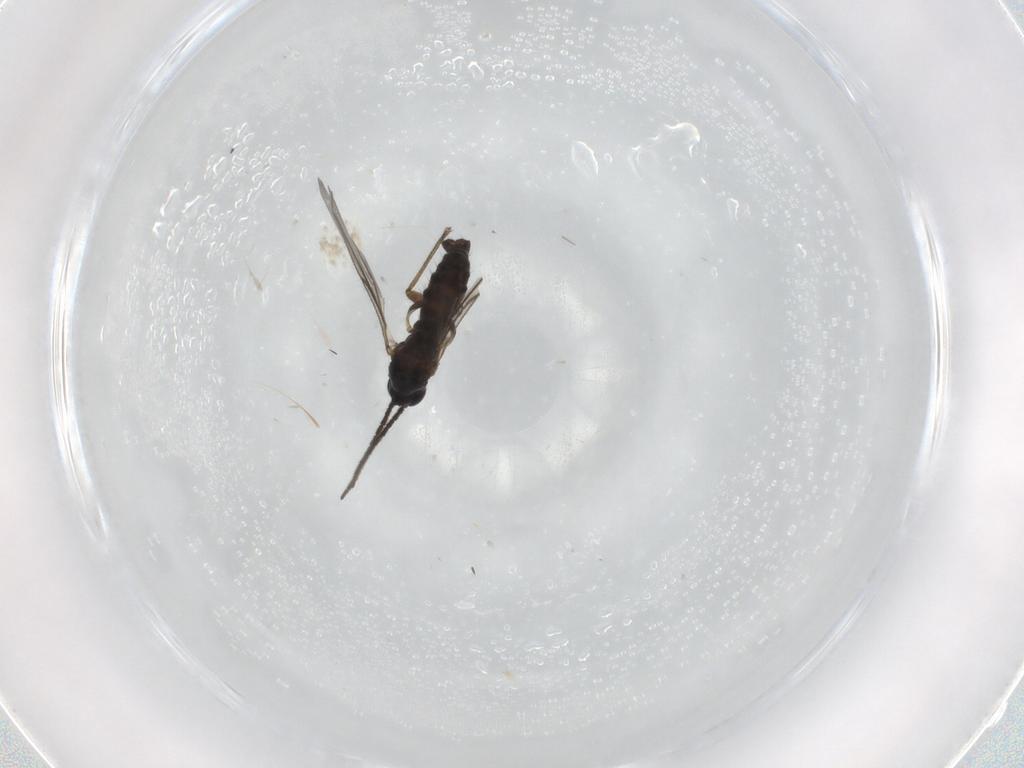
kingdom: Animalia
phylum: Arthropoda
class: Insecta
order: Diptera
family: Sciaridae
